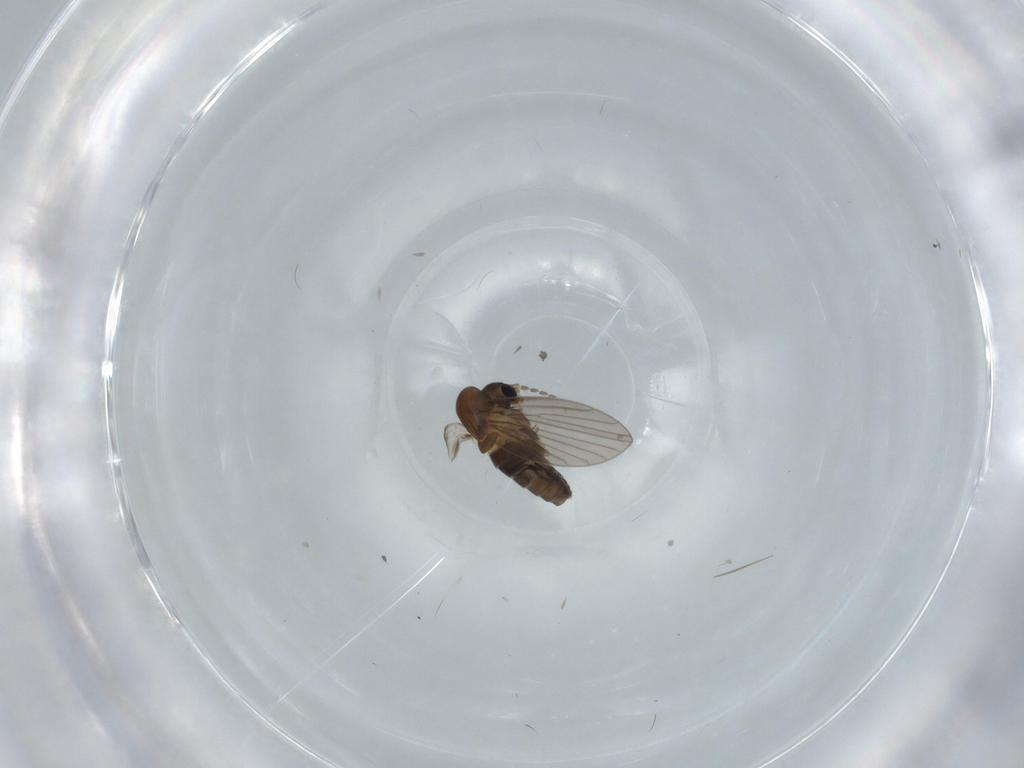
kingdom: Animalia
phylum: Arthropoda
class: Insecta
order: Diptera
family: Psychodidae
